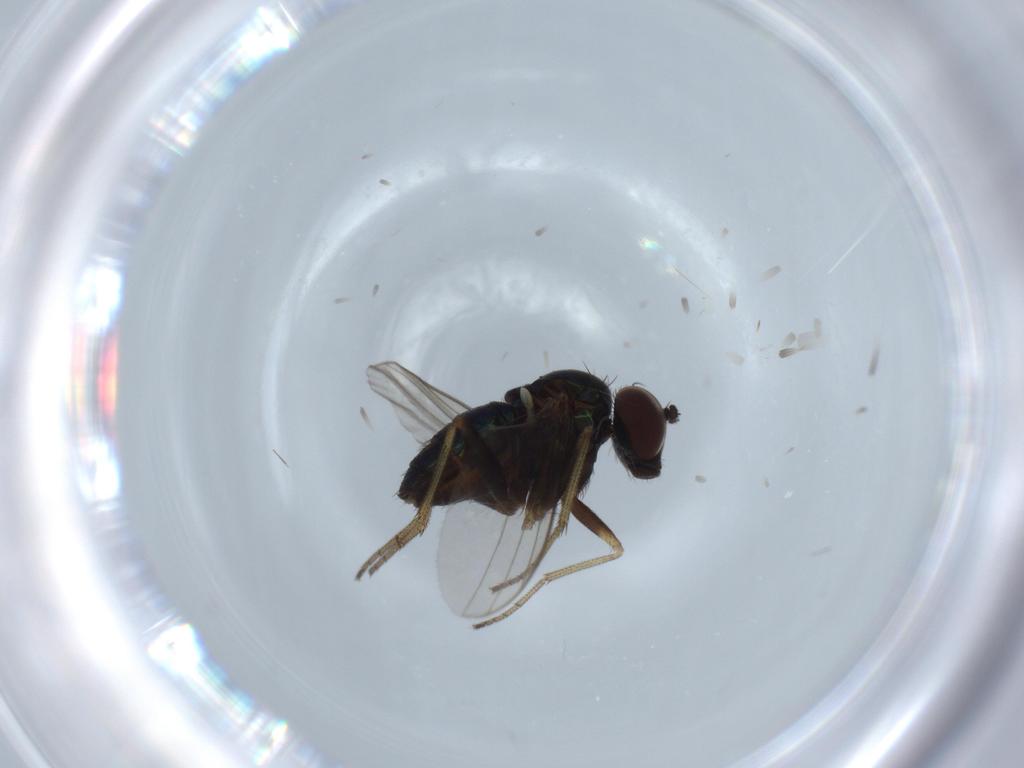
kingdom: Animalia
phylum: Arthropoda
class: Insecta
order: Diptera
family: Dolichopodidae
